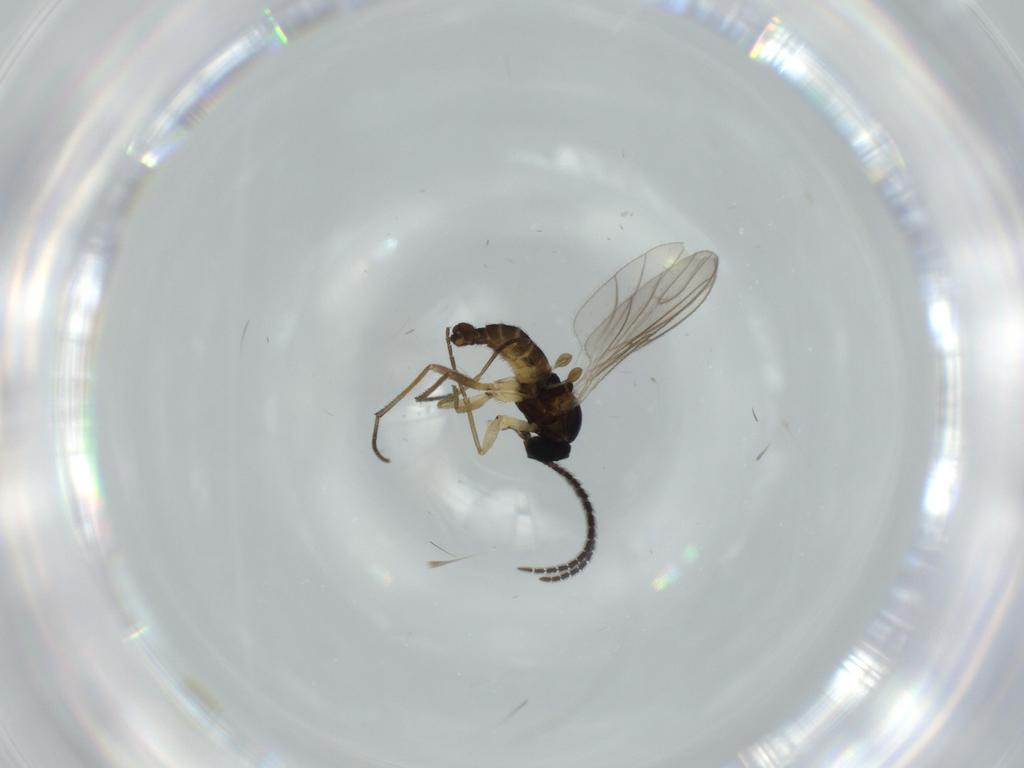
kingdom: Animalia
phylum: Arthropoda
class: Insecta
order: Diptera
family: Sciaridae
